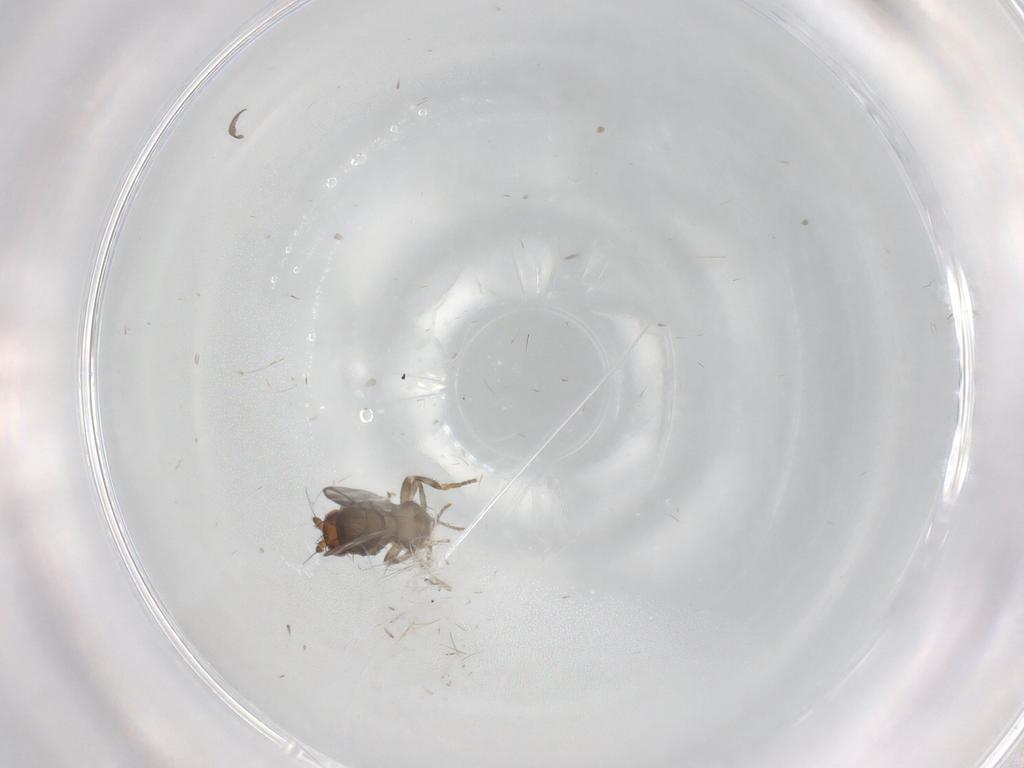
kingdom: Animalia
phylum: Arthropoda
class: Insecta
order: Diptera
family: Sphaeroceridae
